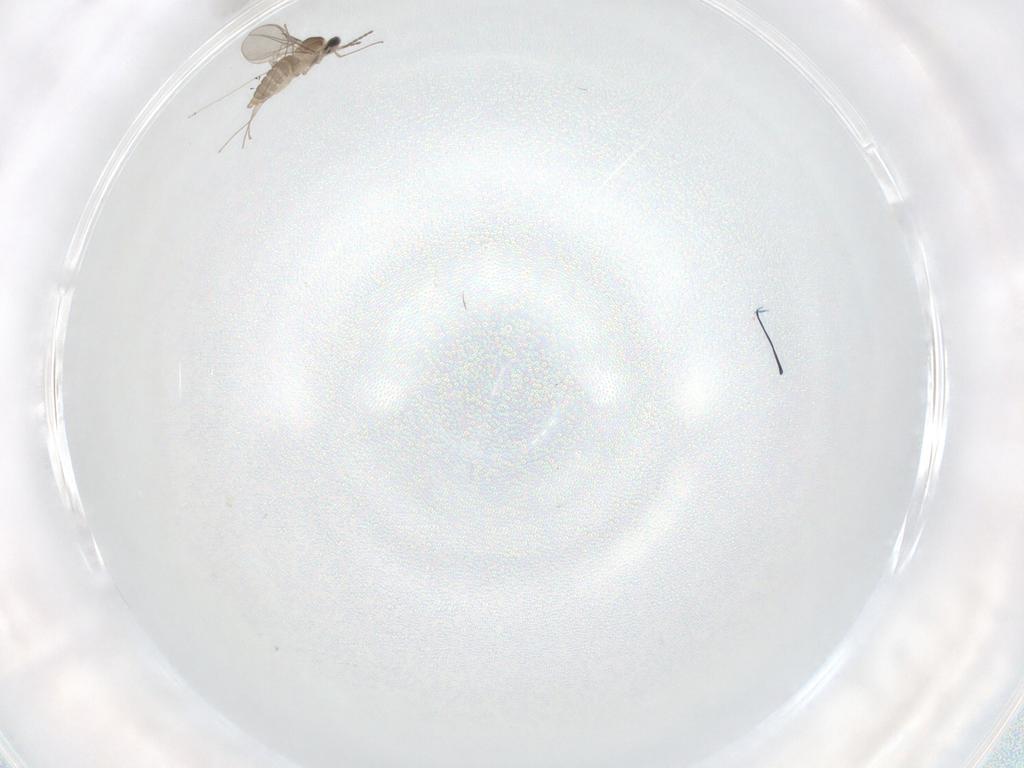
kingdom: Animalia
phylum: Arthropoda
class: Insecta
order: Diptera
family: Cecidomyiidae
